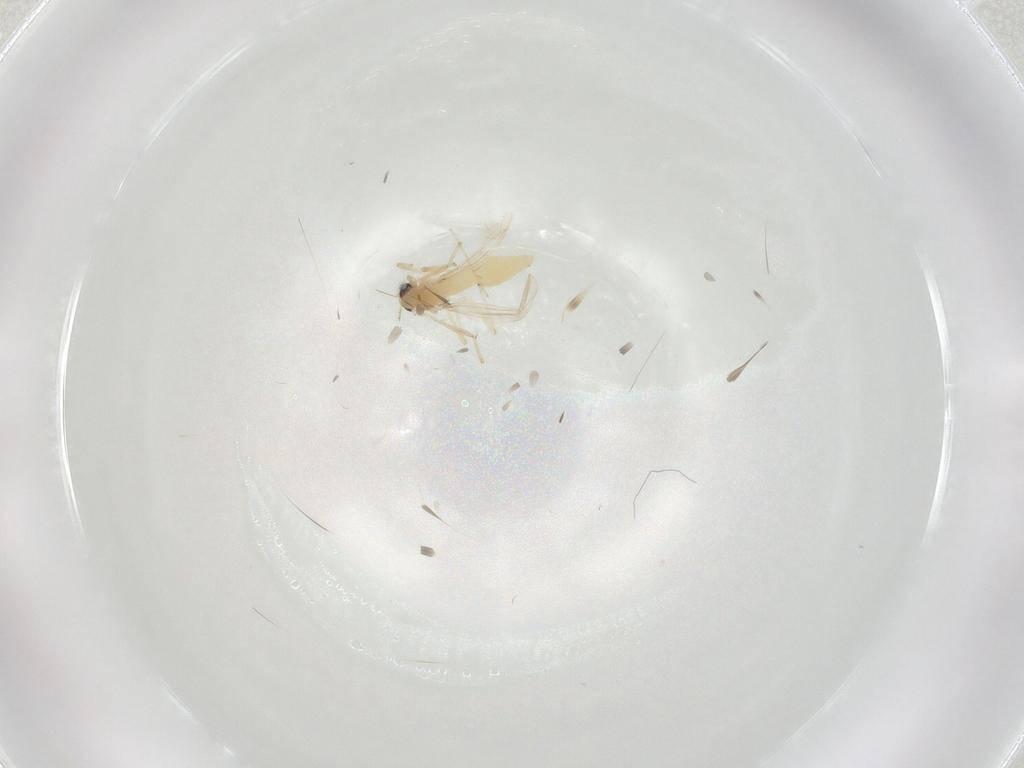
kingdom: Animalia
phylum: Arthropoda
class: Insecta
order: Diptera
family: Chironomidae
